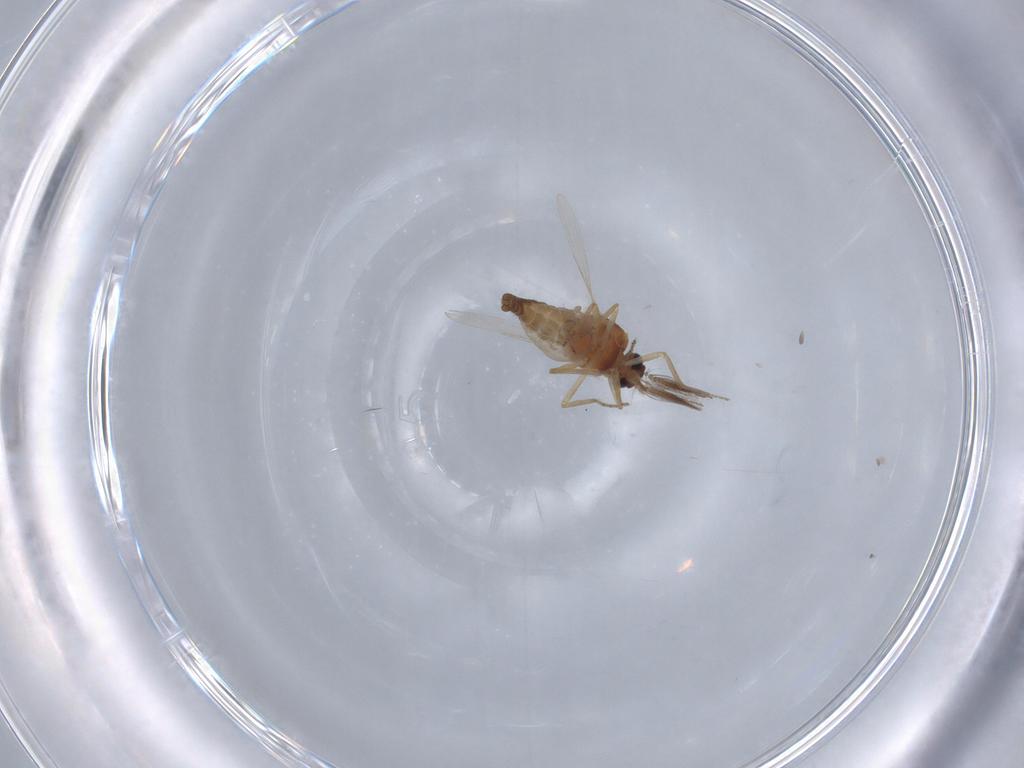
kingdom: Animalia
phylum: Arthropoda
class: Insecta
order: Diptera
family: Ceratopogonidae
